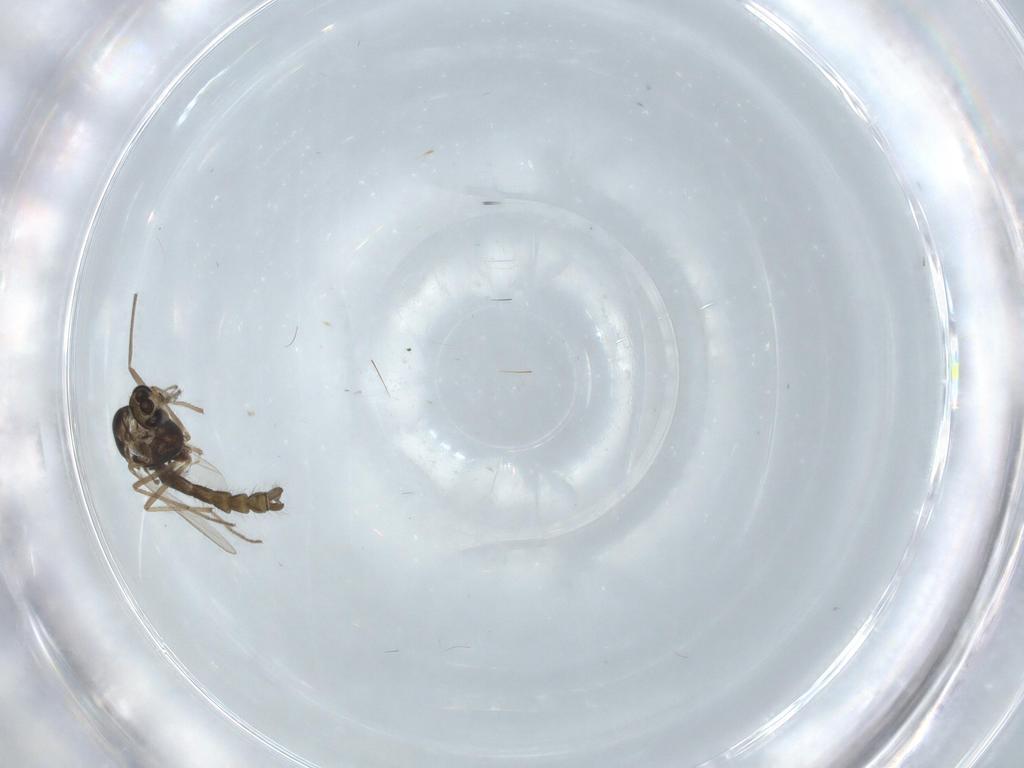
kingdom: Animalia
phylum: Arthropoda
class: Insecta
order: Diptera
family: Chironomidae
